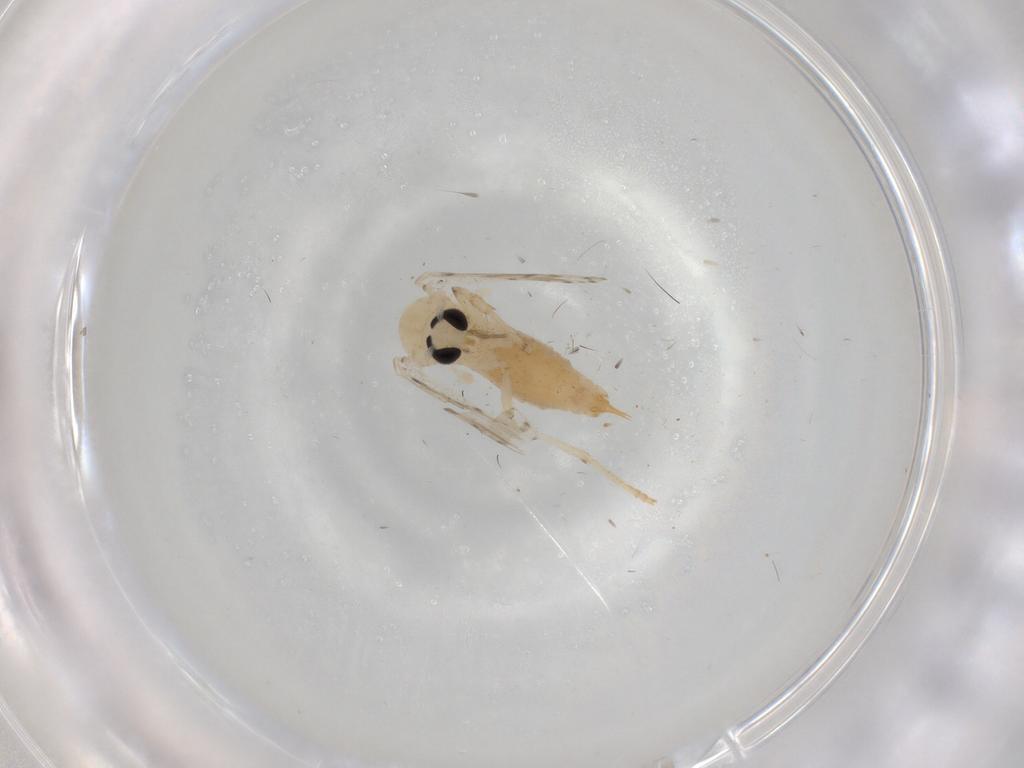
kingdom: Animalia
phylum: Arthropoda
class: Insecta
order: Diptera
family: Psychodidae
